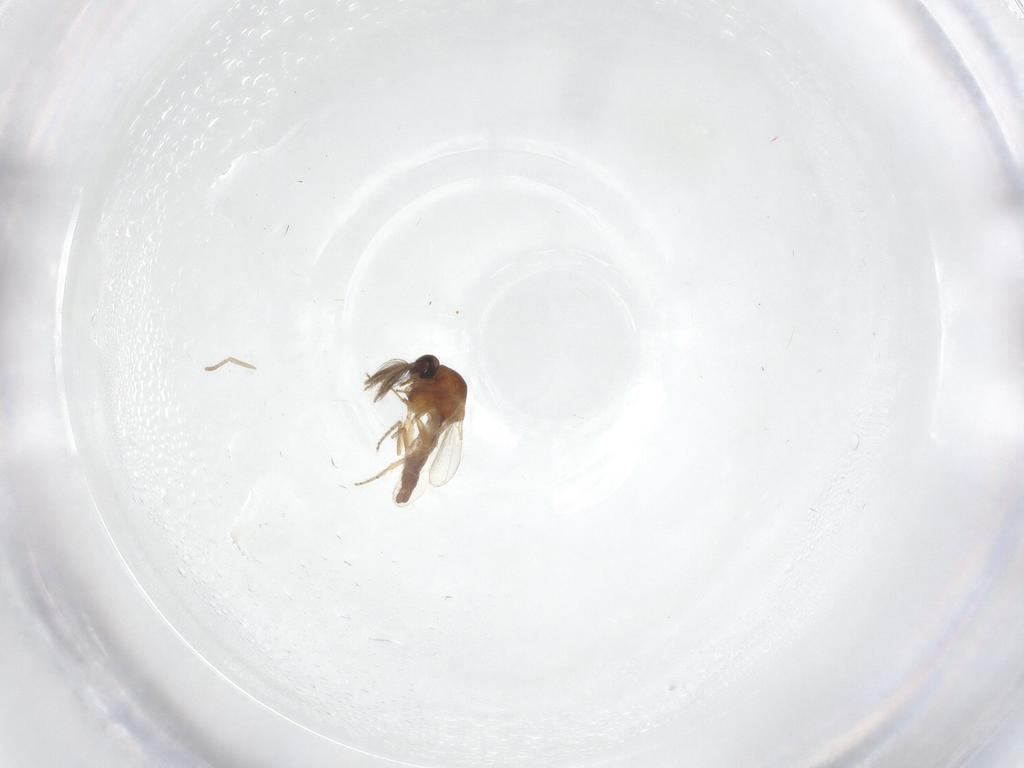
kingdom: Animalia
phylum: Arthropoda
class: Insecta
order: Diptera
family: Ceratopogonidae
